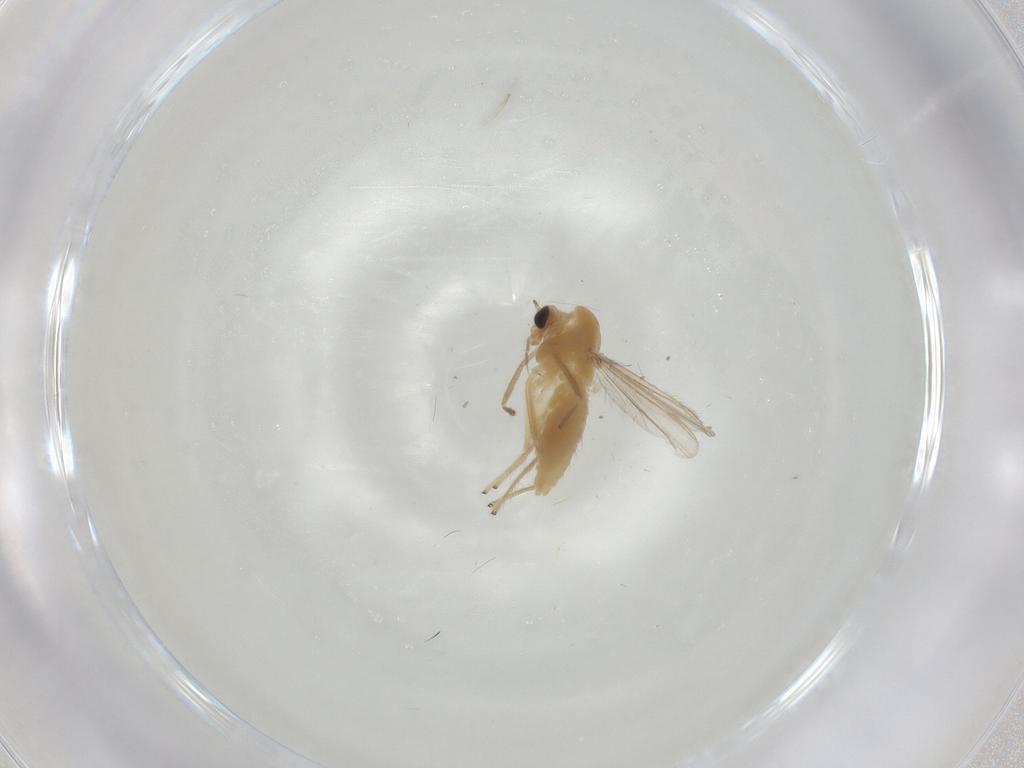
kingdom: Animalia
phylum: Arthropoda
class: Insecta
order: Diptera
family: Chironomidae
